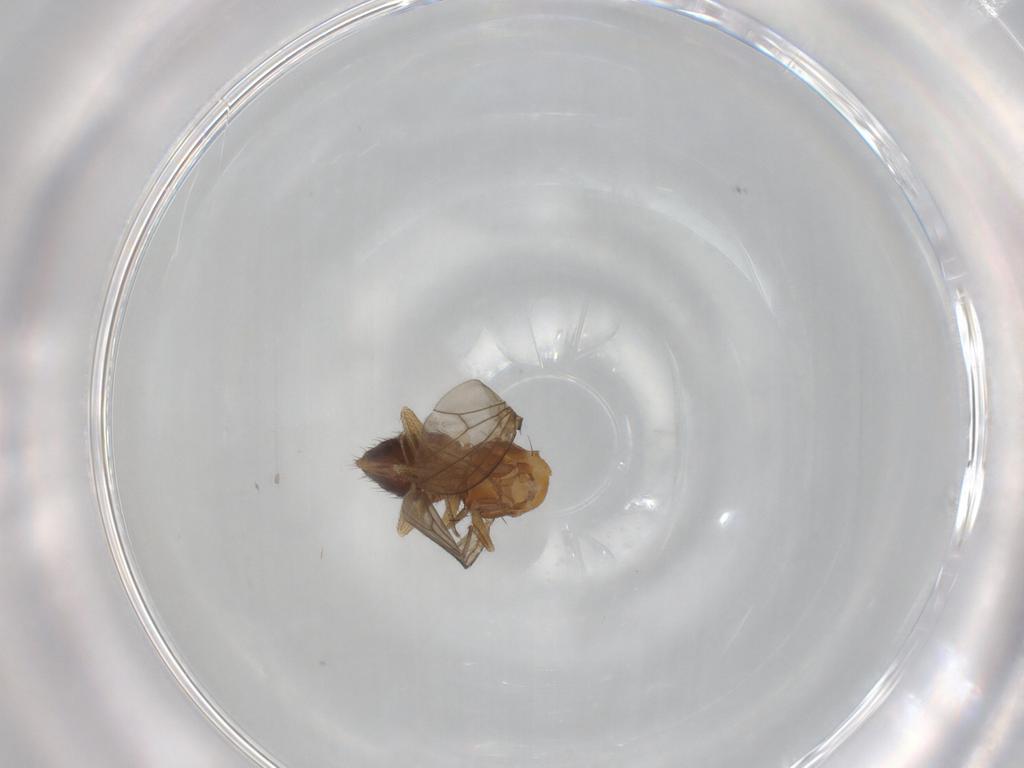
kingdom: Animalia
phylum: Arthropoda
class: Insecta
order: Diptera
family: Drosophilidae
